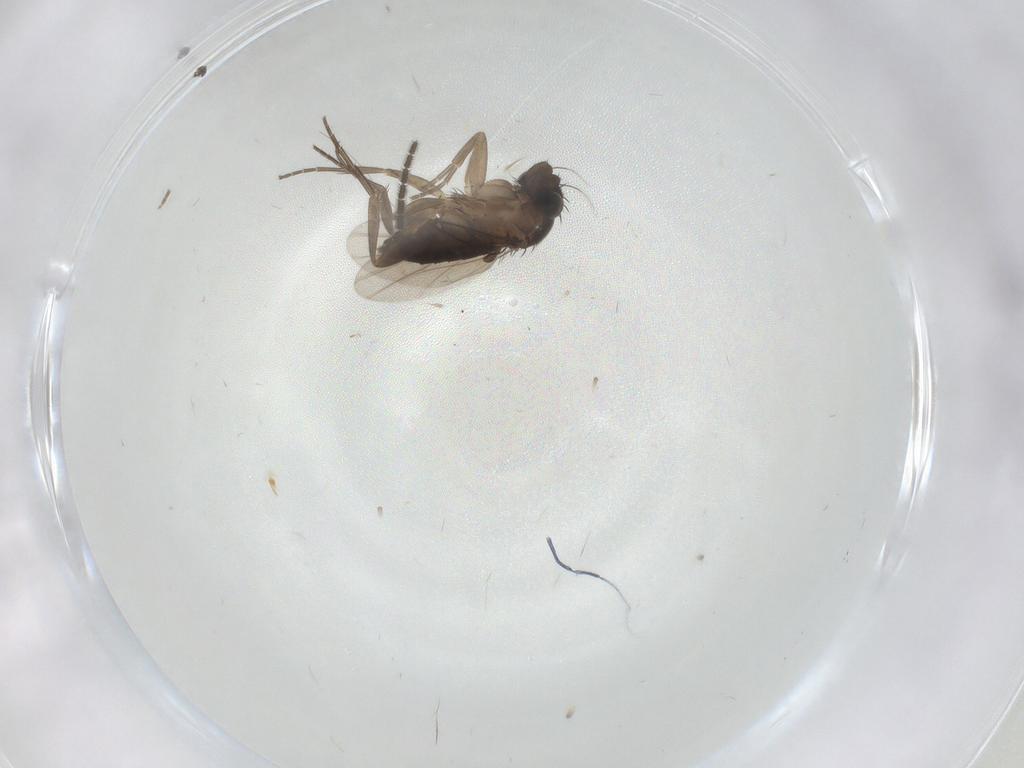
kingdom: Animalia
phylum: Arthropoda
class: Insecta
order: Diptera
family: Phoridae
